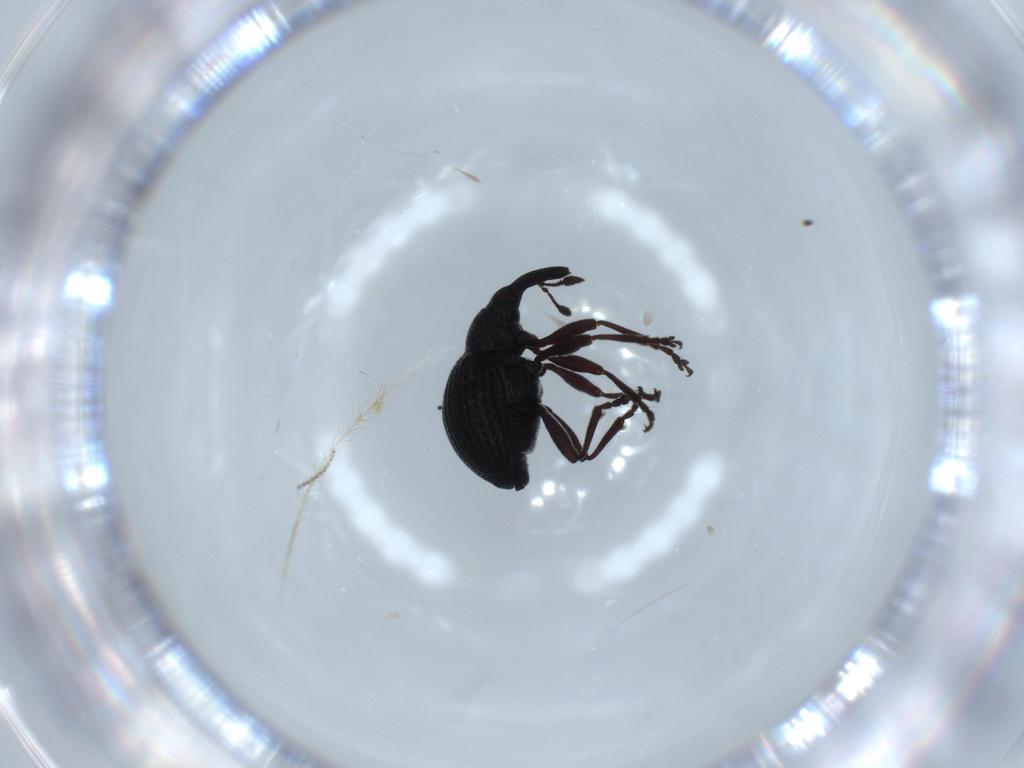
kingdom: Animalia
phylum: Arthropoda
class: Insecta
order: Coleoptera
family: Brentidae
